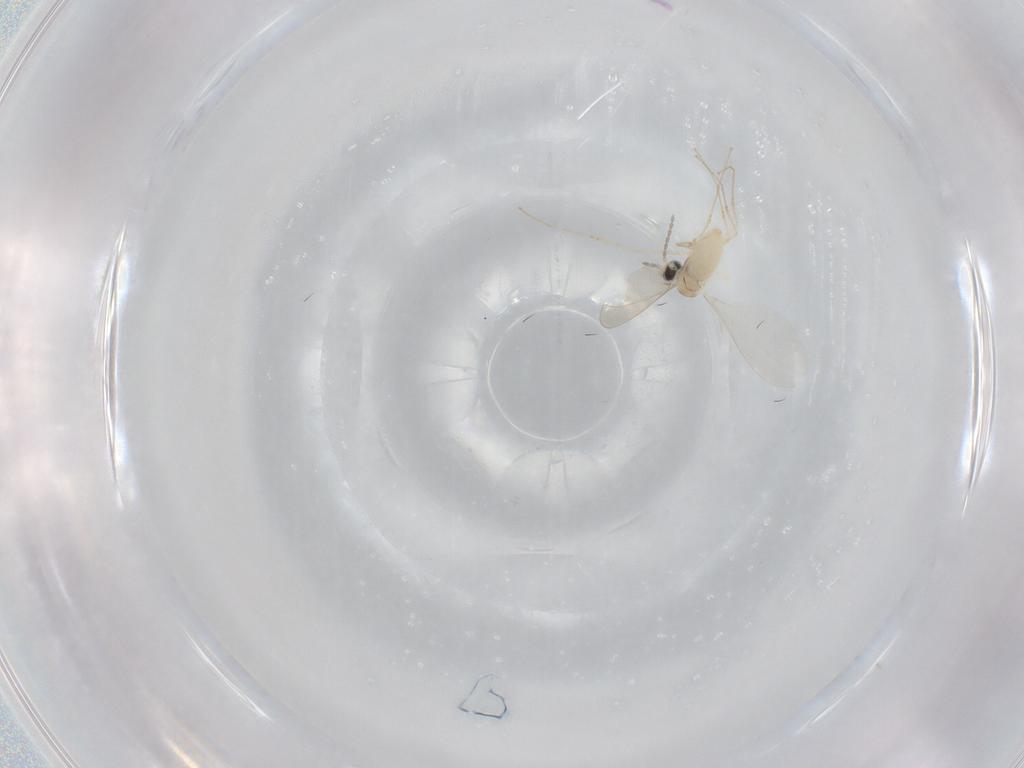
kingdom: Animalia
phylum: Arthropoda
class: Insecta
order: Diptera
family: Cecidomyiidae
